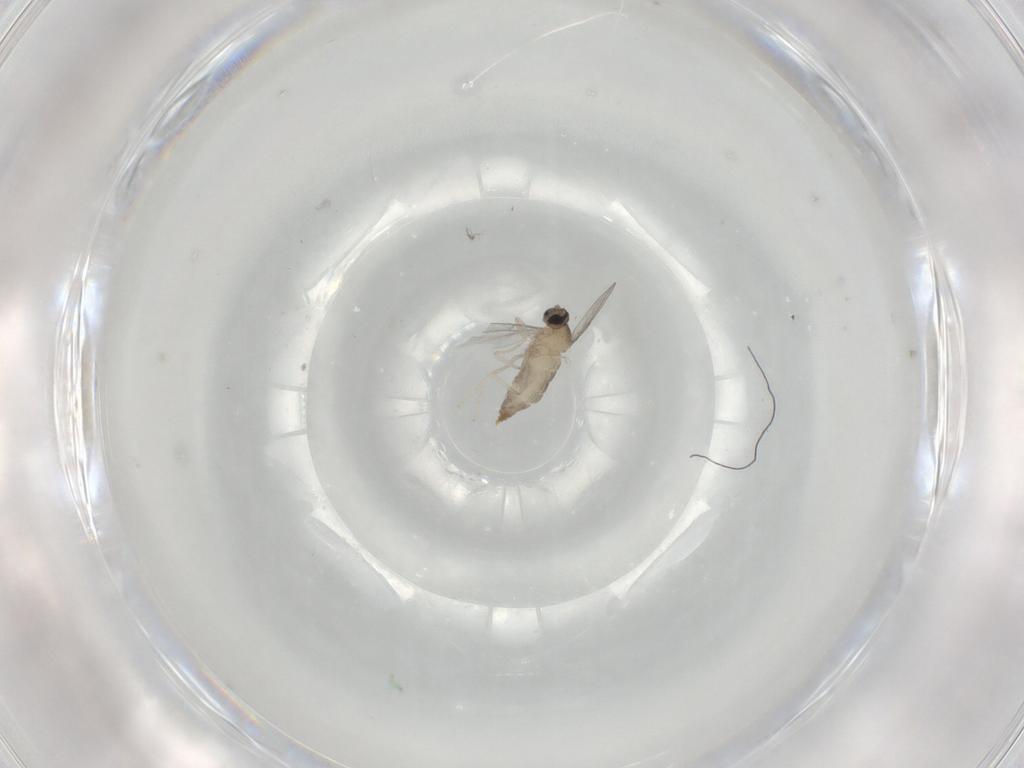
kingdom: Animalia
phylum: Arthropoda
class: Insecta
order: Diptera
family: Cecidomyiidae
